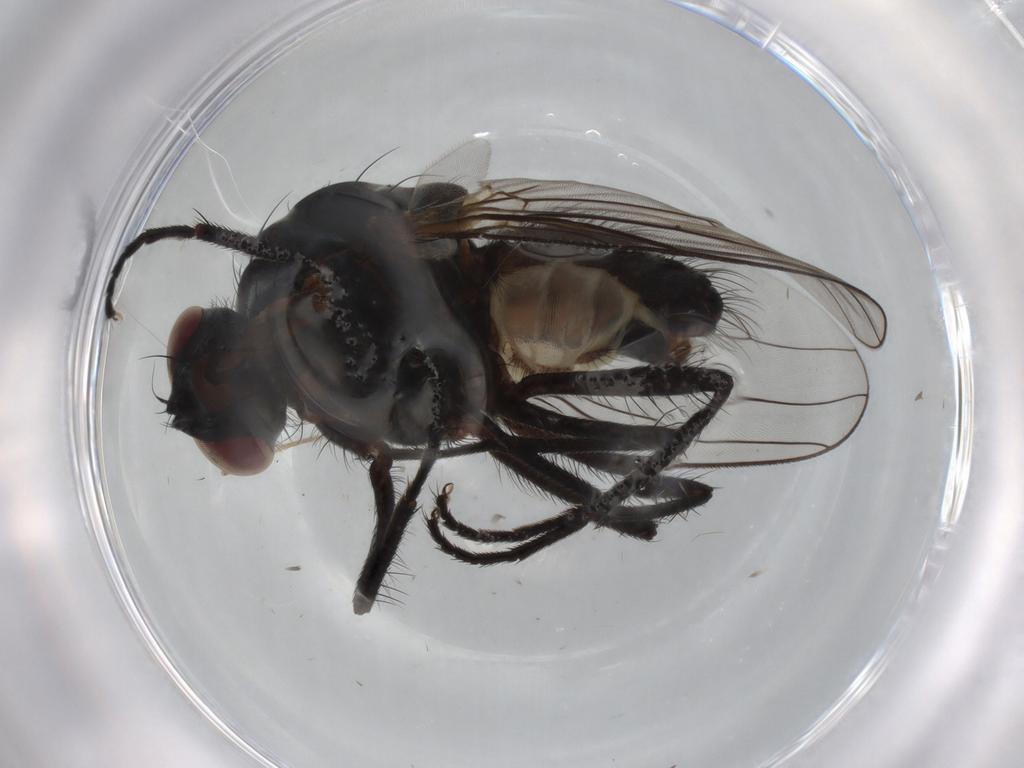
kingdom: Animalia
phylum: Arthropoda
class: Insecta
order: Diptera
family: Anthomyiidae
